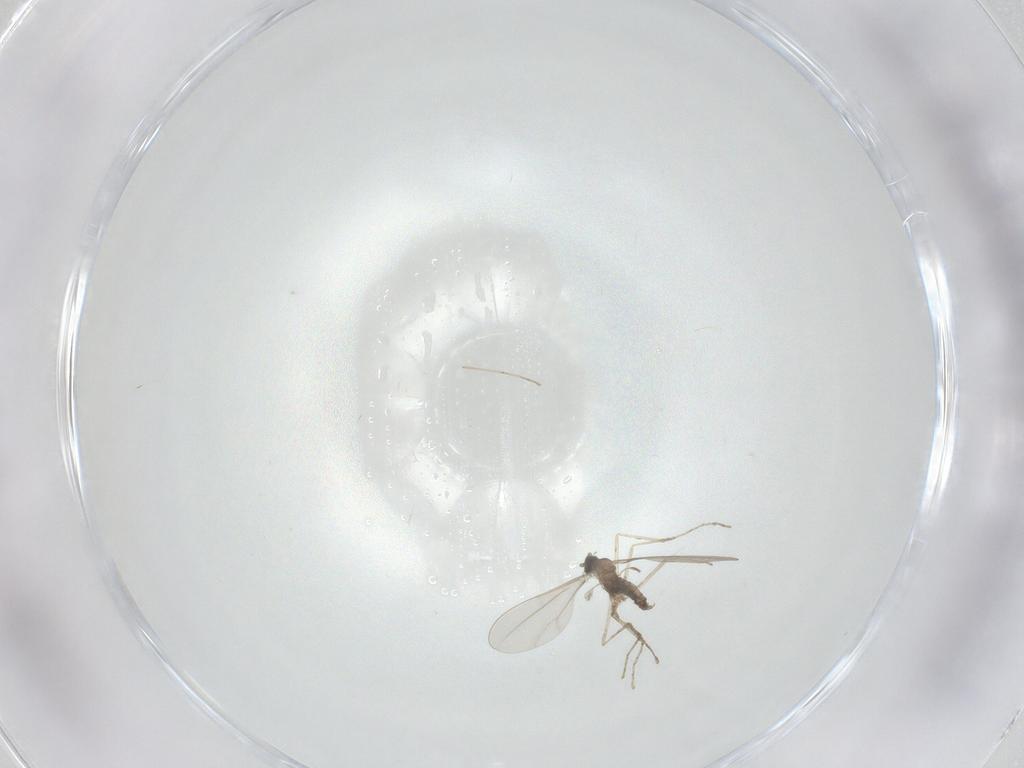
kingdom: Animalia
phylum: Arthropoda
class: Insecta
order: Diptera
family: Cecidomyiidae
